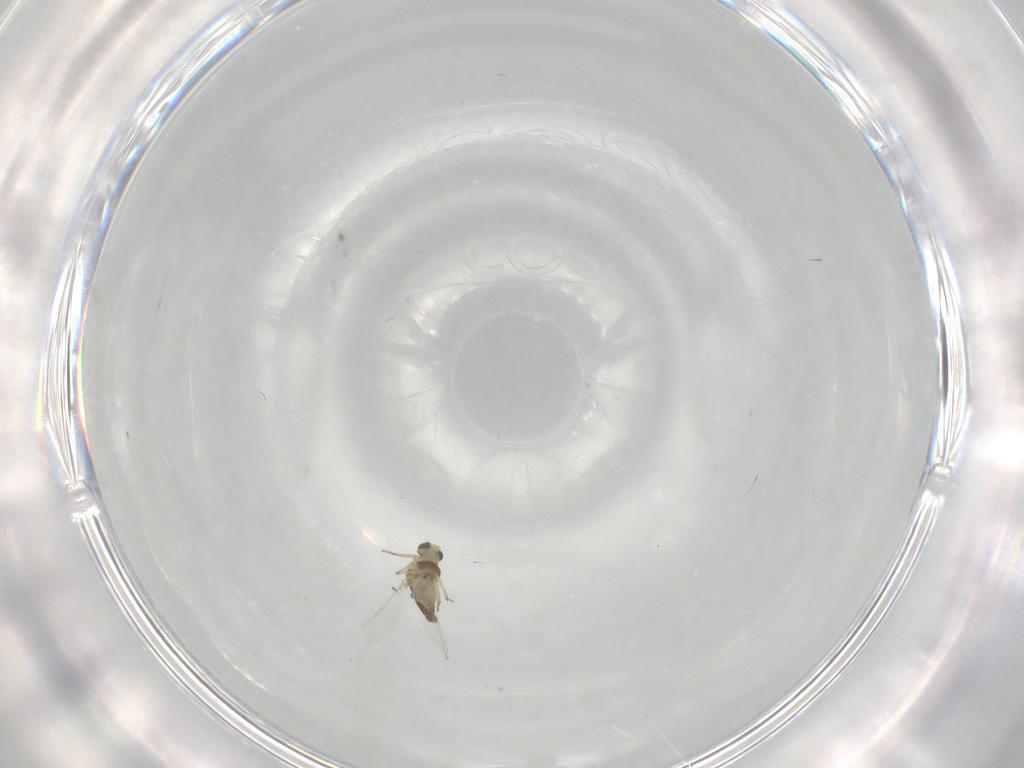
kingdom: Animalia
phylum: Arthropoda
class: Insecta
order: Diptera
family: Chironomidae
